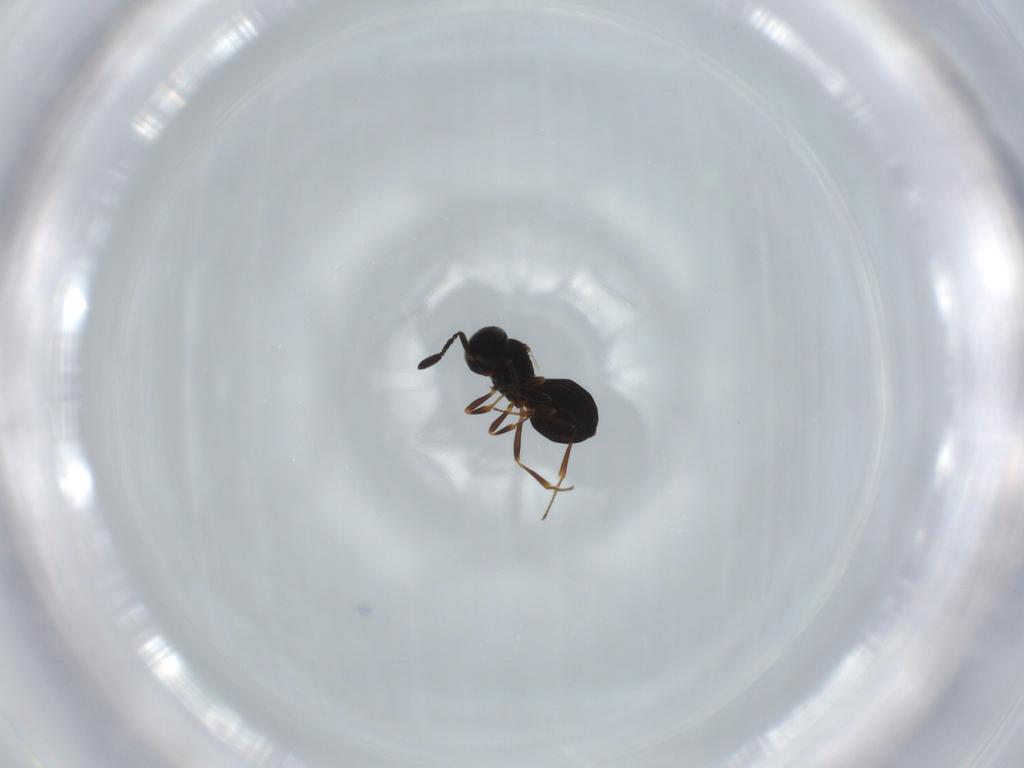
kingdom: Animalia
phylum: Arthropoda
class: Insecta
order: Hymenoptera
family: Scelionidae
